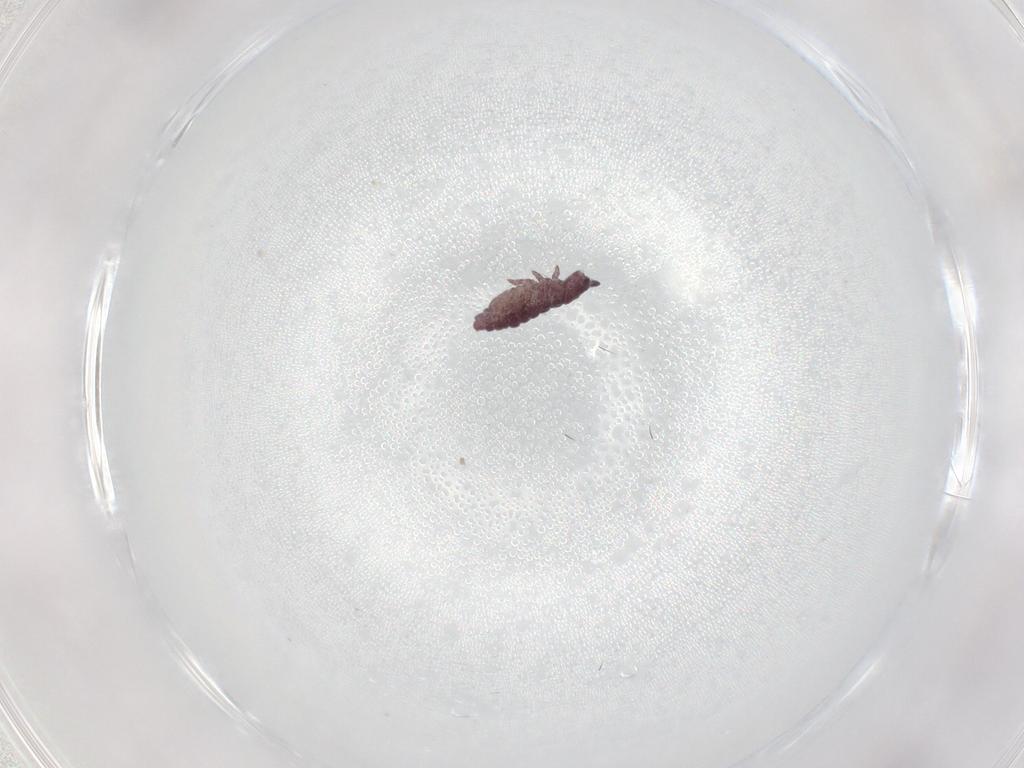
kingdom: Animalia
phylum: Arthropoda
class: Collembola
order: Poduromorpha
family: Hypogastruridae
